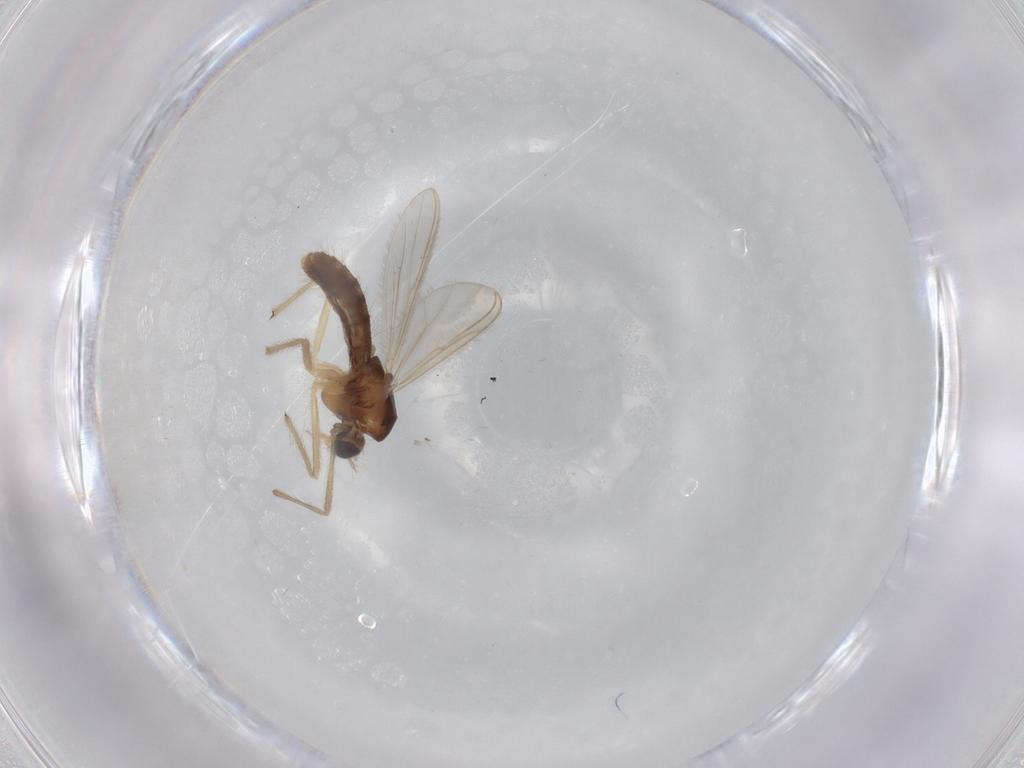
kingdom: Animalia
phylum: Arthropoda
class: Insecta
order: Diptera
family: Chironomidae
